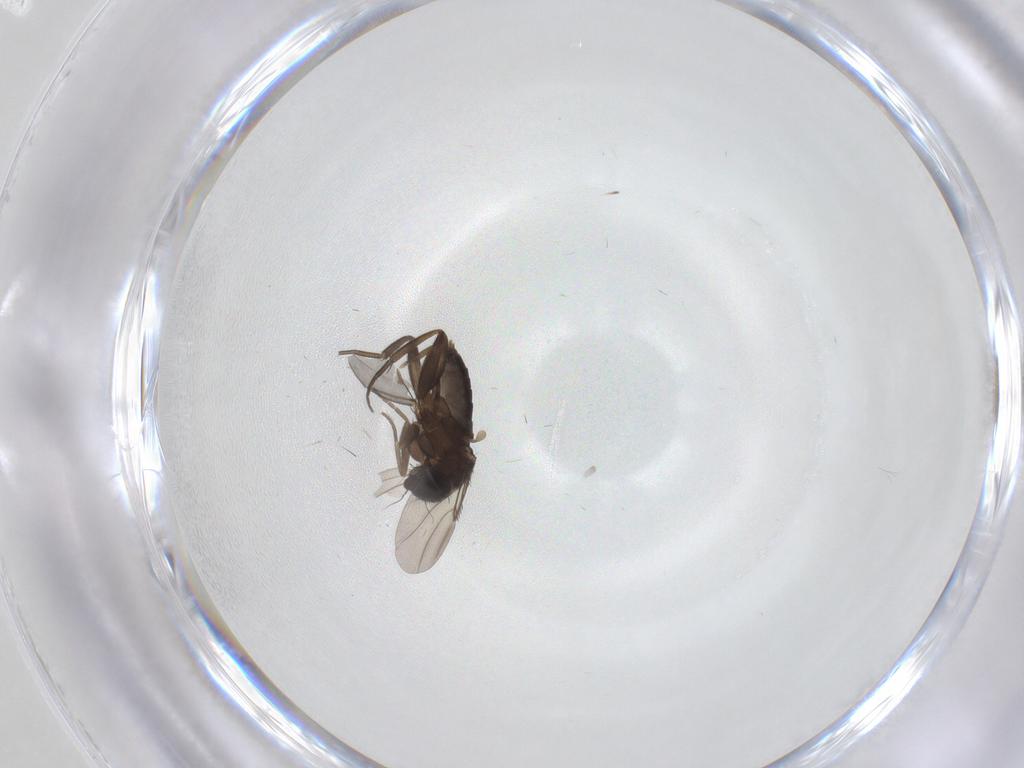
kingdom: Animalia
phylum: Arthropoda
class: Insecta
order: Diptera
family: Phoridae
